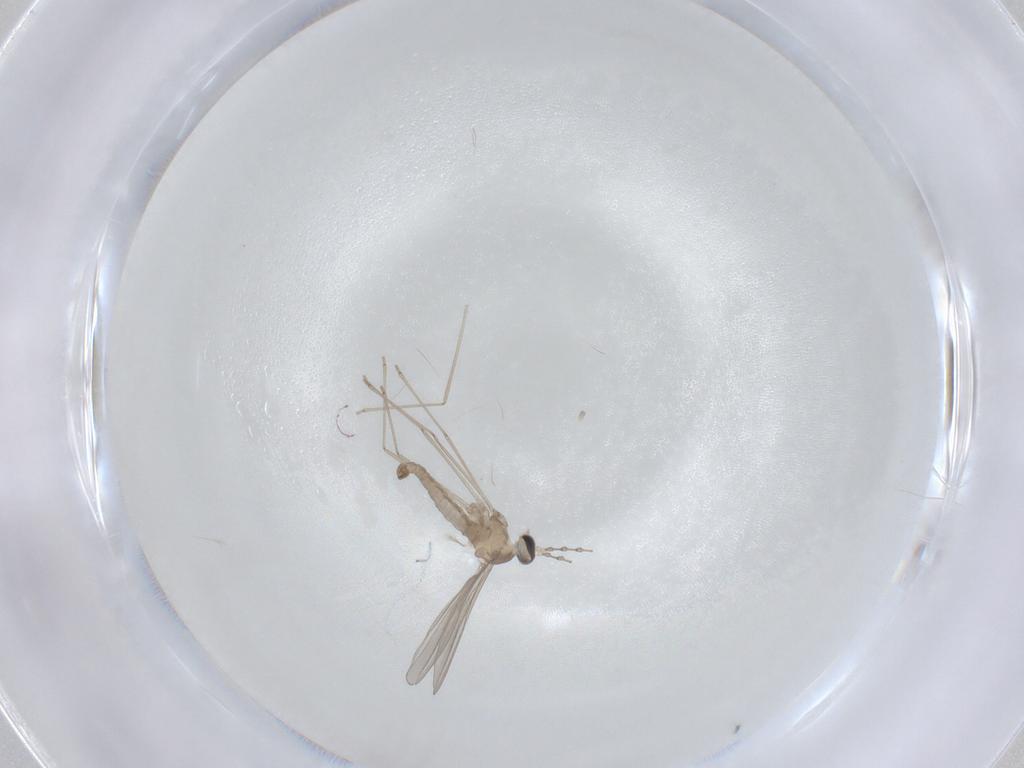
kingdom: Animalia
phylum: Arthropoda
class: Insecta
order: Diptera
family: Cecidomyiidae
